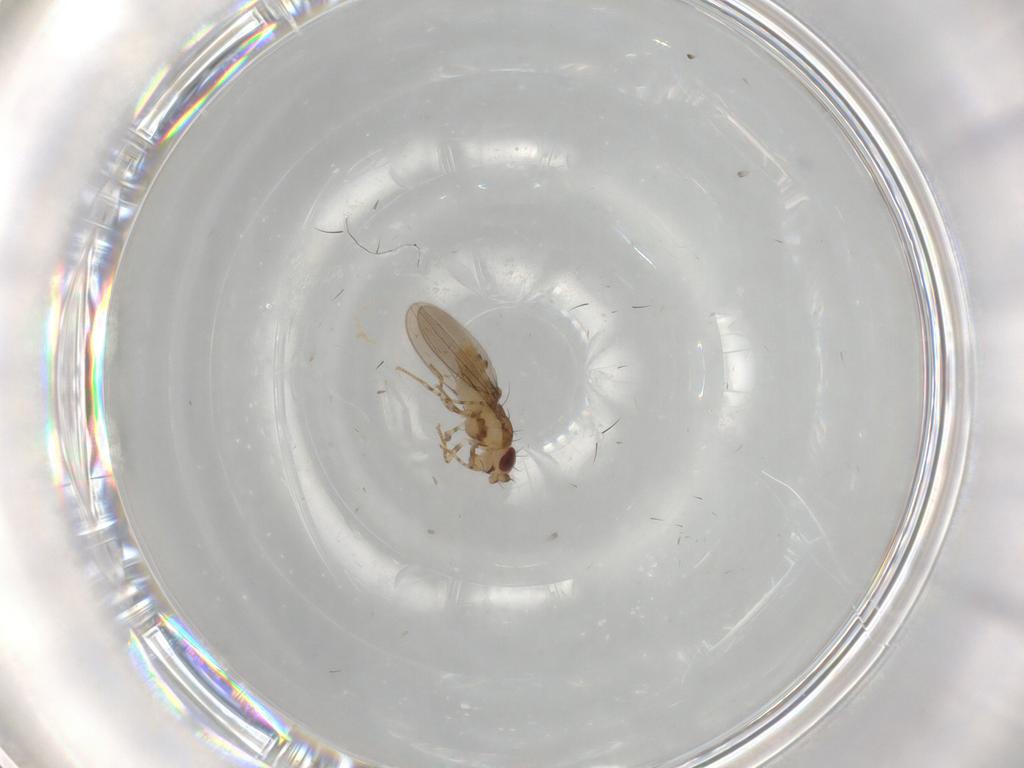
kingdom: Animalia
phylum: Arthropoda
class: Insecta
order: Diptera
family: Asteiidae
